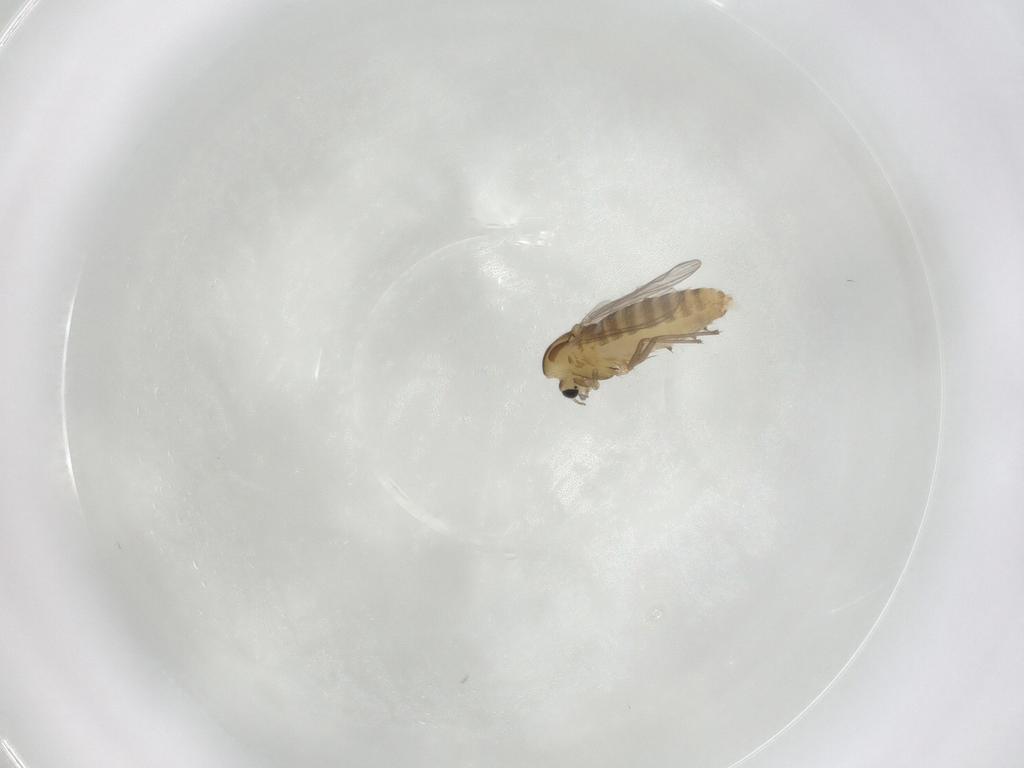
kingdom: Animalia
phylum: Arthropoda
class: Insecta
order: Diptera
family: Chironomidae
